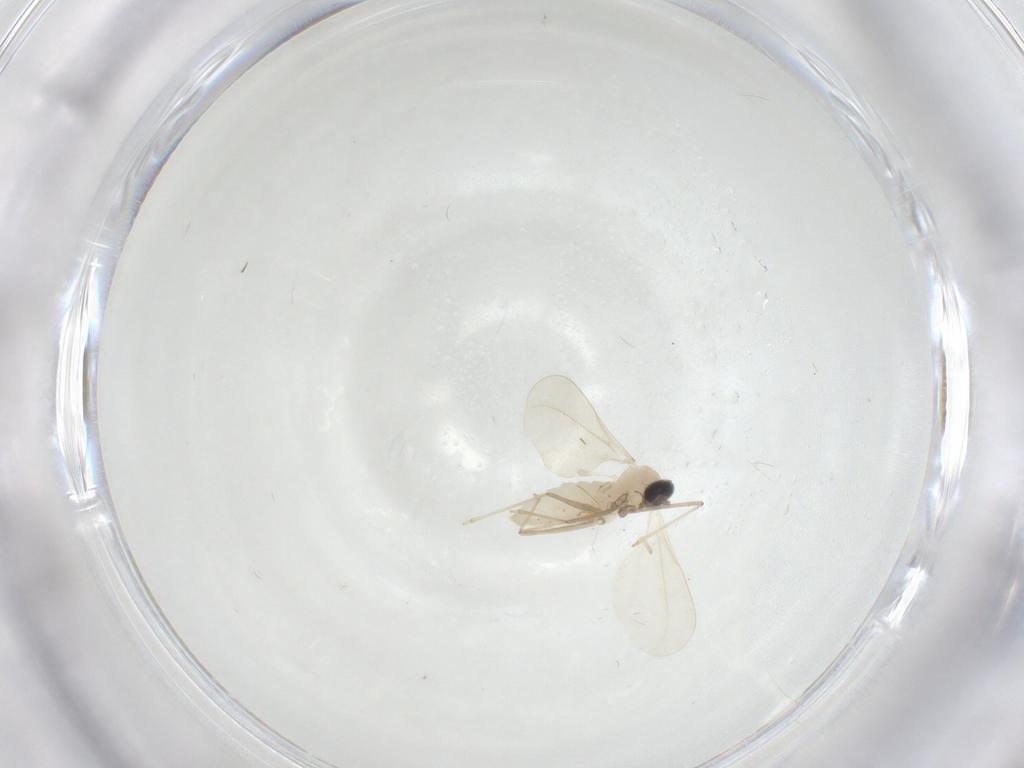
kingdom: Animalia
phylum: Arthropoda
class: Insecta
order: Diptera
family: Cecidomyiidae
